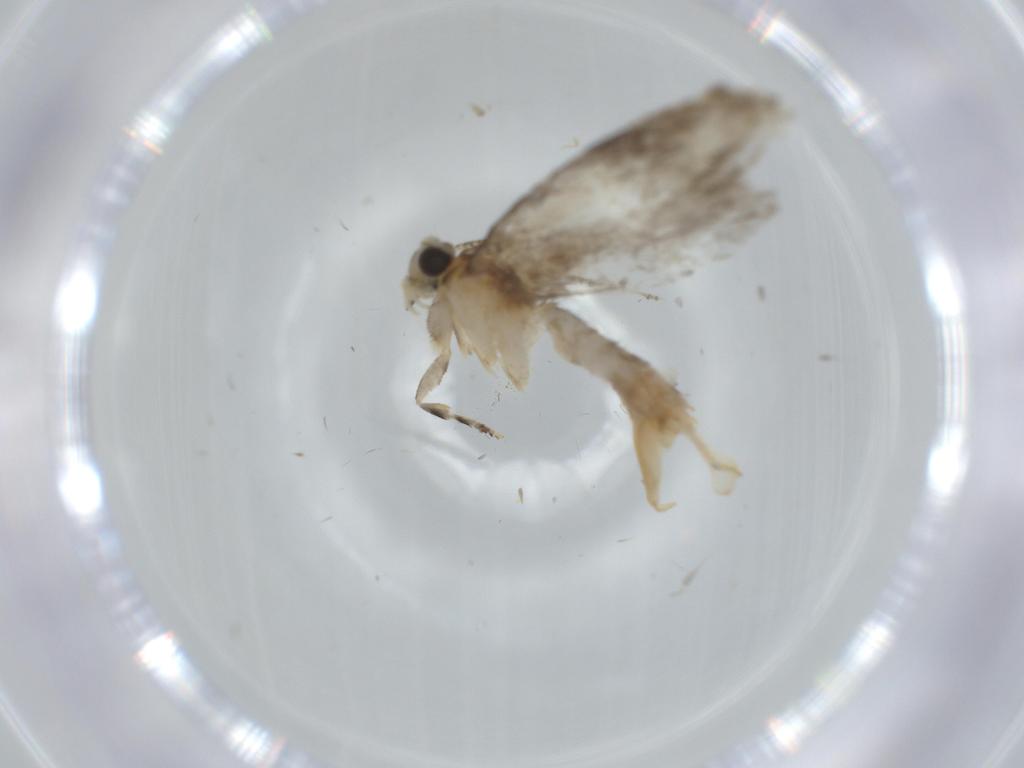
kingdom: Animalia
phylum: Arthropoda
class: Insecta
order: Lepidoptera
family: Tineidae
